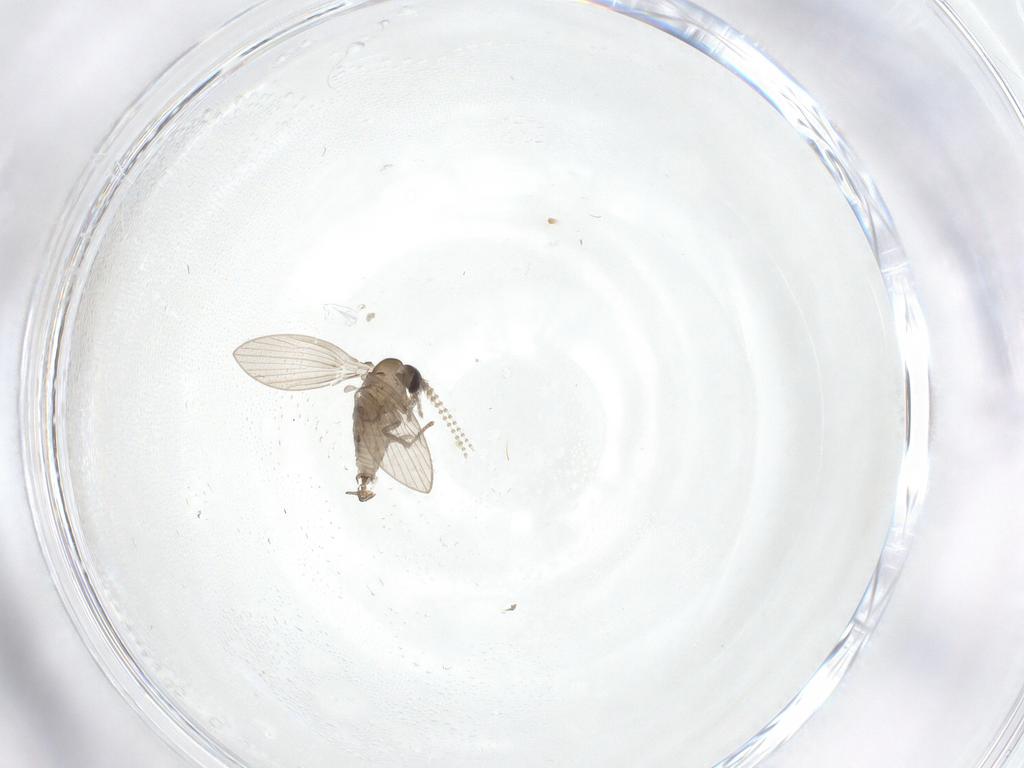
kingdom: Animalia
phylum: Arthropoda
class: Insecta
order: Diptera
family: Psychodidae
